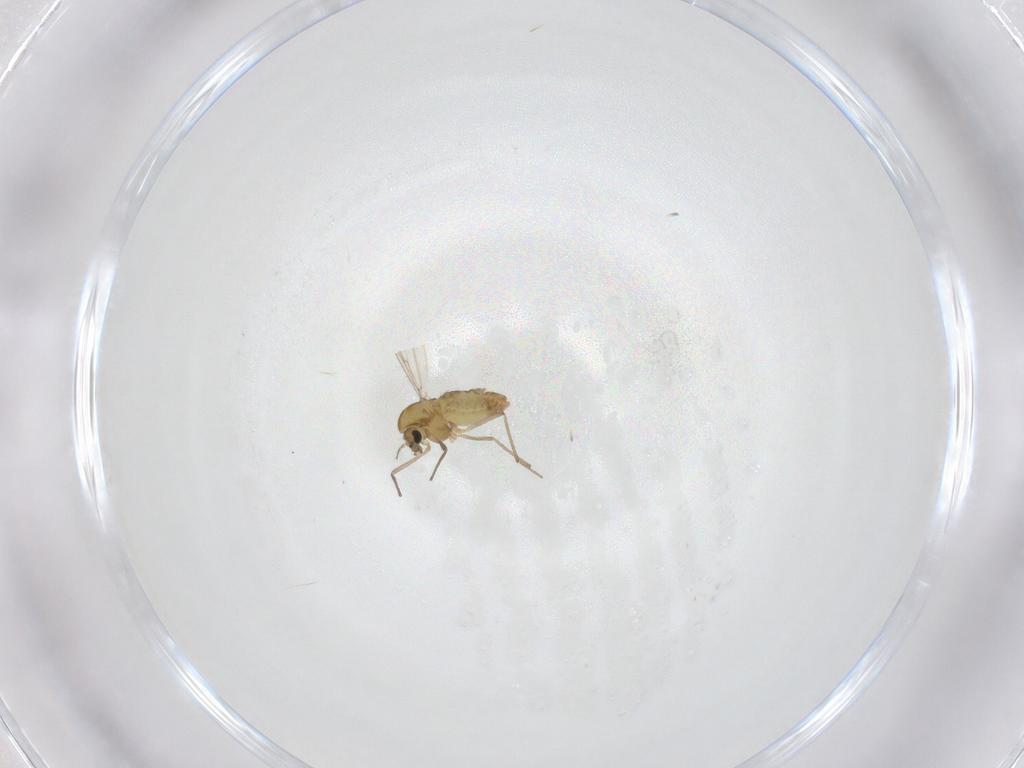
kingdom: Animalia
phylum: Arthropoda
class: Insecta
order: Diptera
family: Chironomidae
